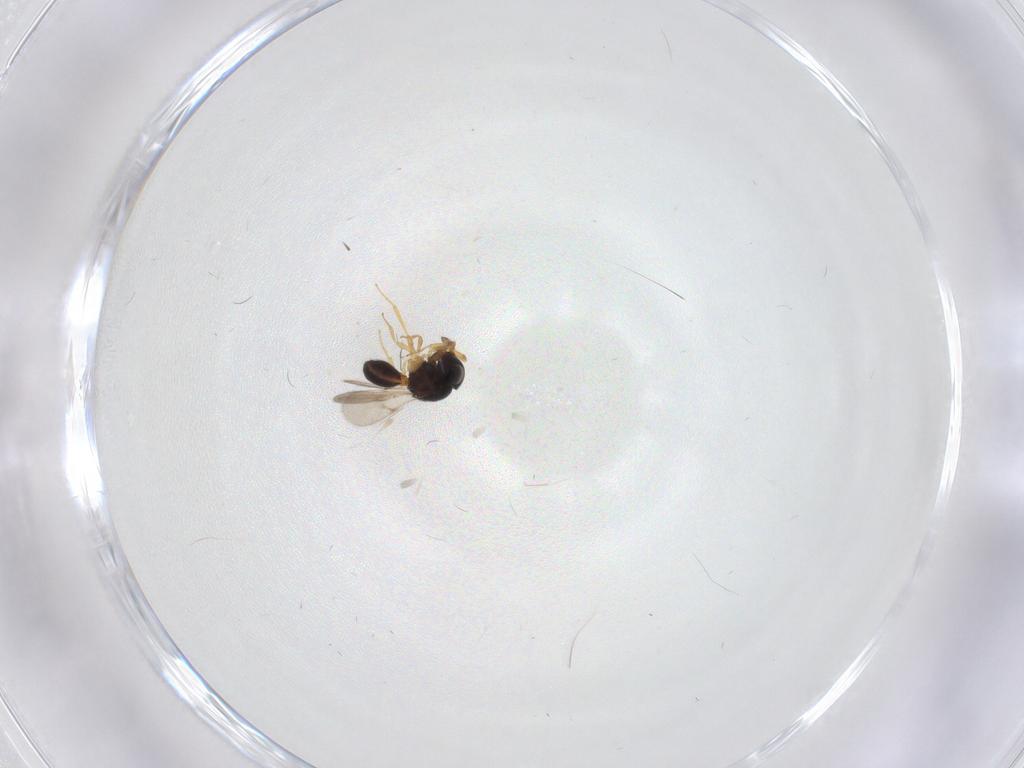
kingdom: Animalia
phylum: Arthropoda
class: Insecta
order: Hymenoptera
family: Scelionidae
